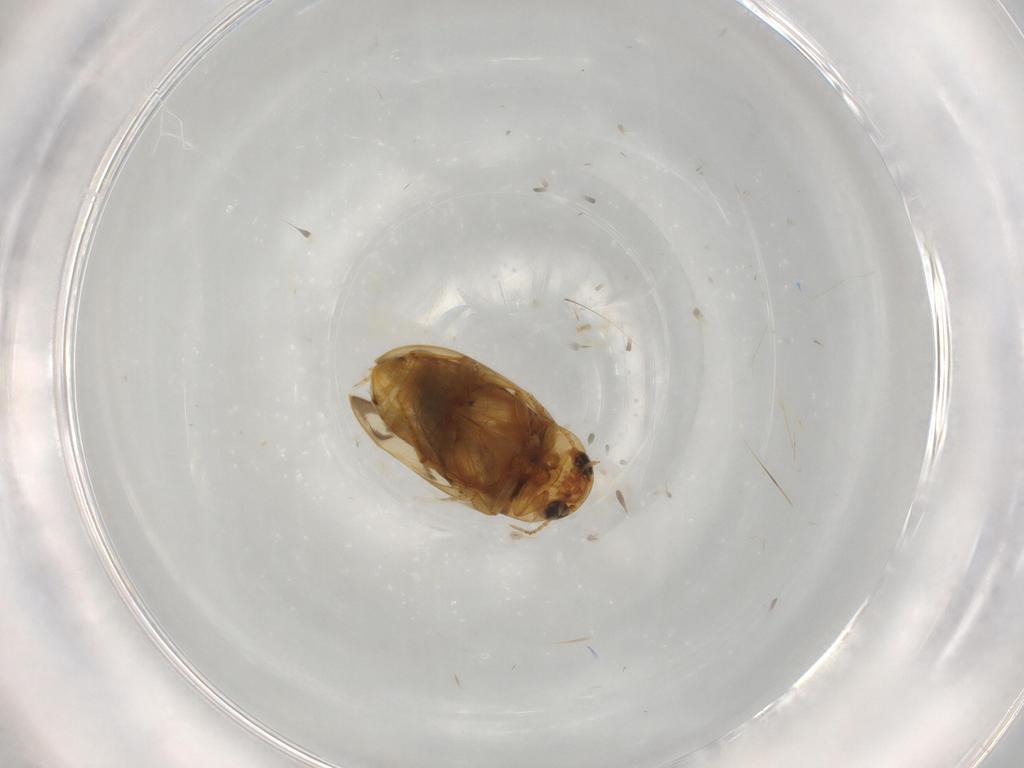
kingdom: Animalia
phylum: Arthropoda
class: Insecta
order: Coleoptera
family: Dytiscidae
